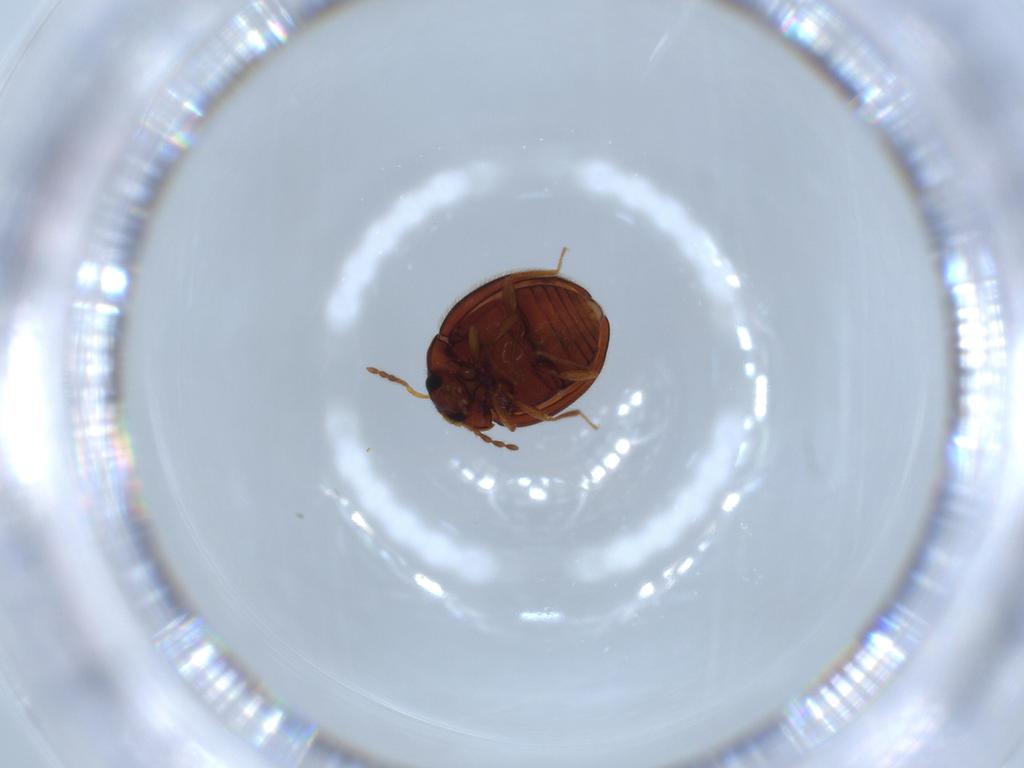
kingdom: Animalia
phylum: Arthropoda
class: Insecta
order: Coleoptera
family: Anamorphidae
